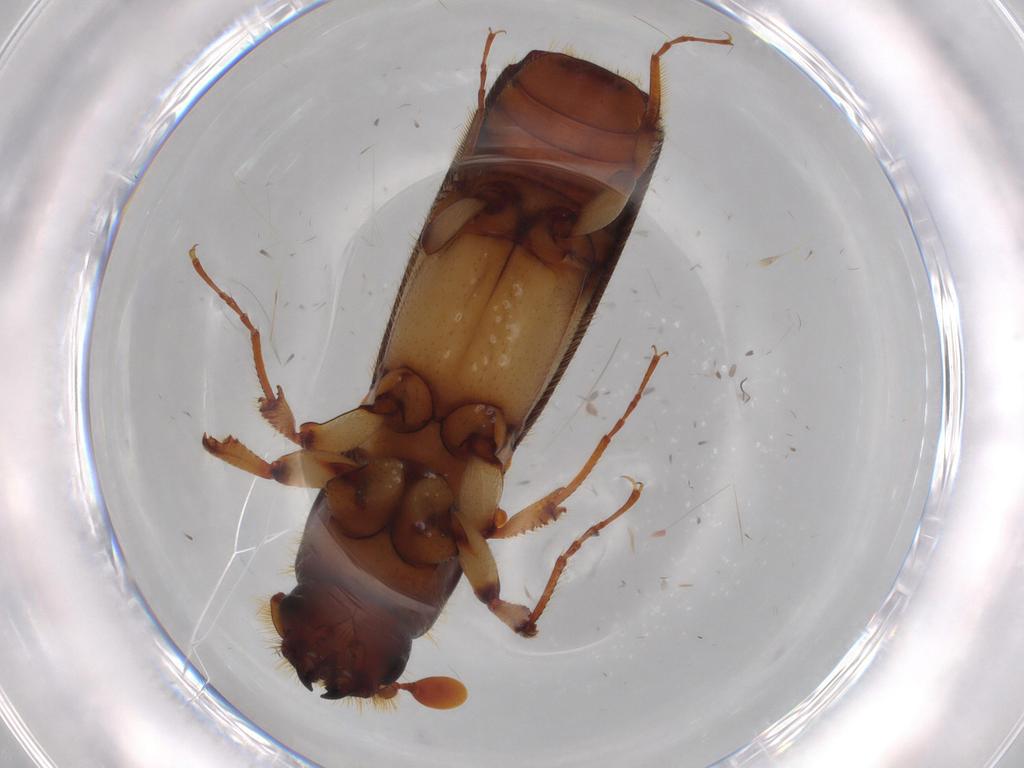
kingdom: Animalia
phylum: Arthropoda
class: Insecta
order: Coleoptera
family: Curculionidae
